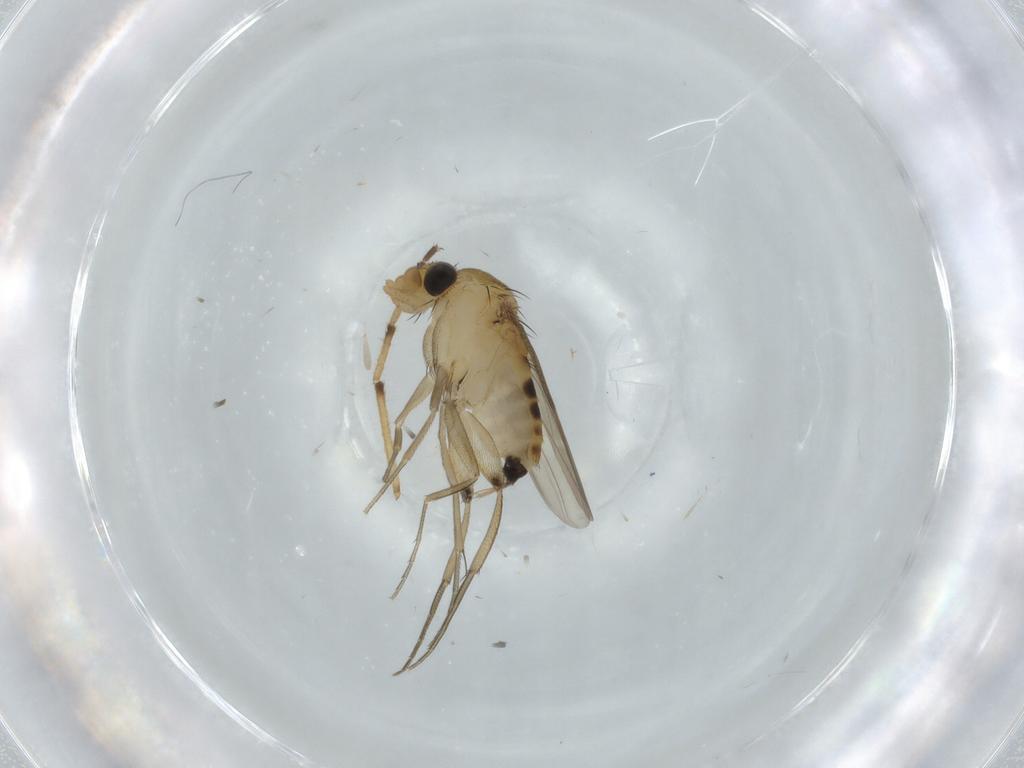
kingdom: Animalia
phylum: Arthropoda
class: Insecta
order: Diptera
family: Phoridae
